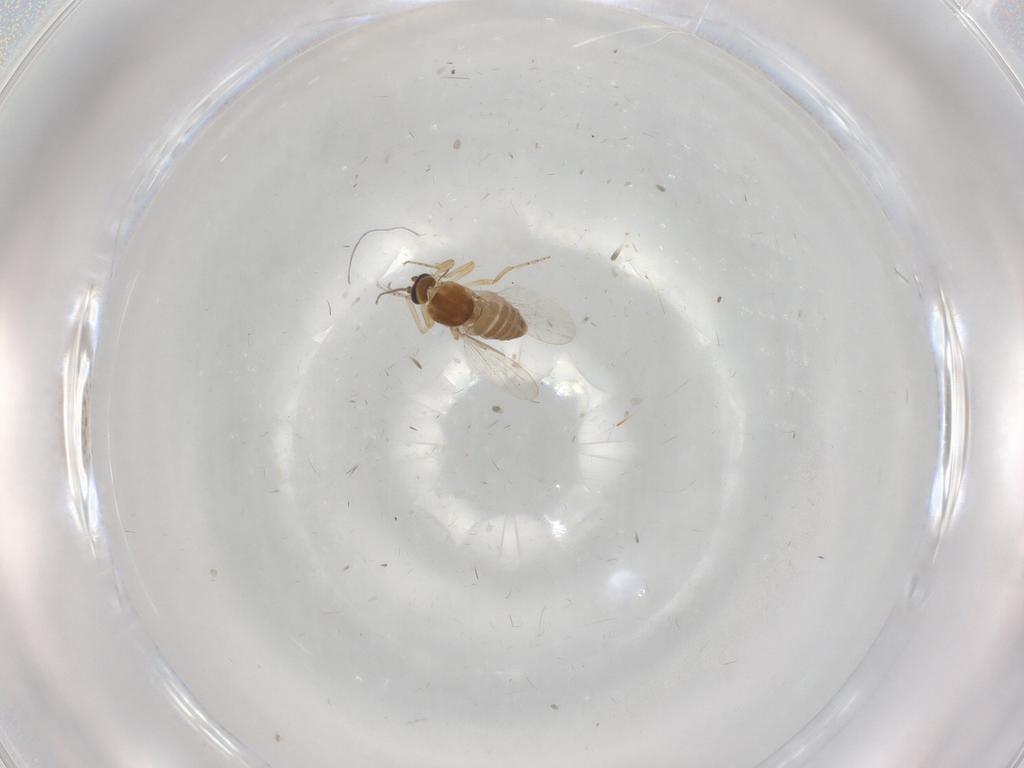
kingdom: Animalia
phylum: Arthropoda
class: Insecta
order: Diptera
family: Ceratopogonidae
